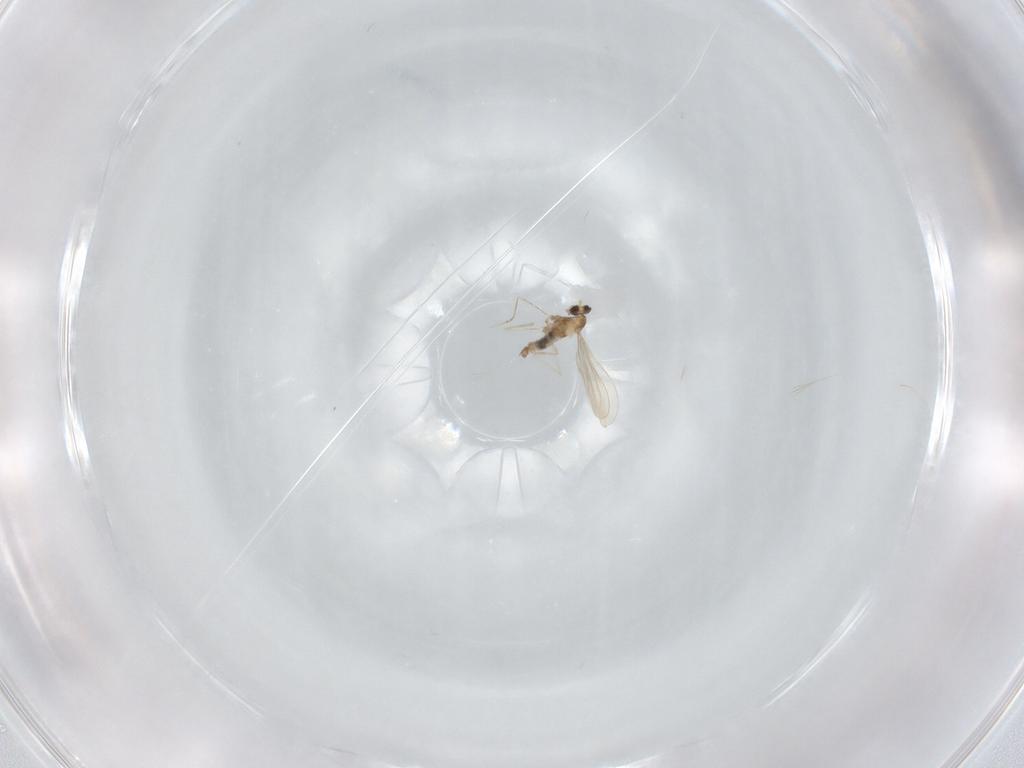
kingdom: Animalia
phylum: Arthropoda
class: Insecta
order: Diptera
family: Cecidomyiidae
